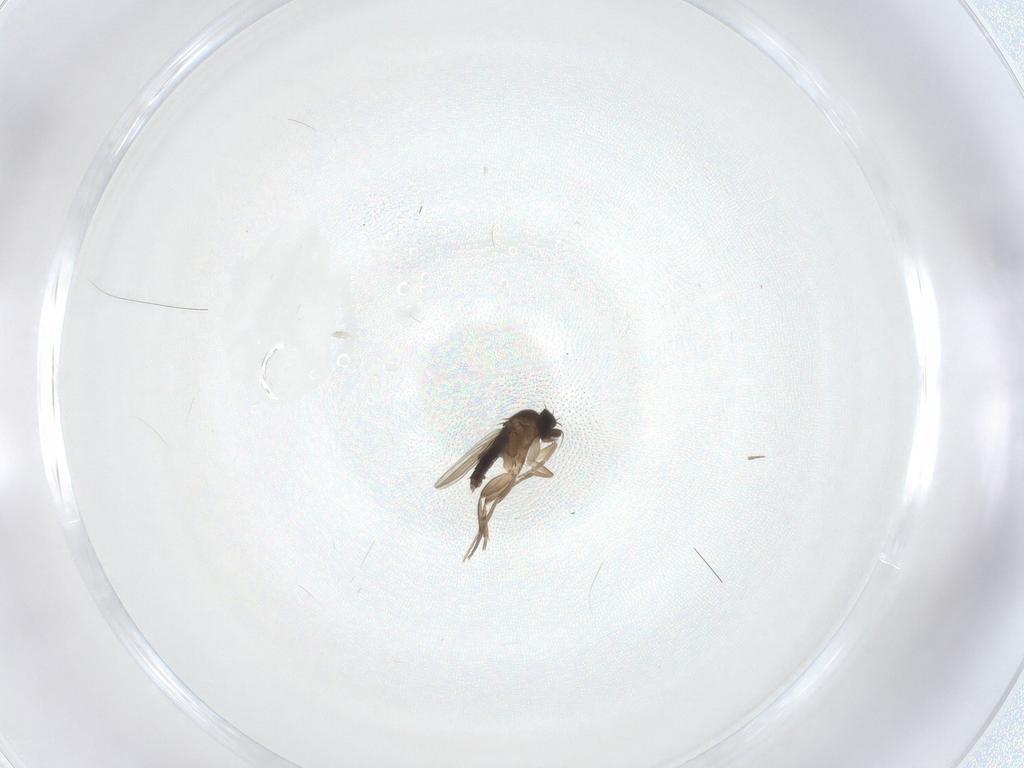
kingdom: Animalia
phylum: Arthropoda
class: Insecta
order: Diptera
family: Phoridae
